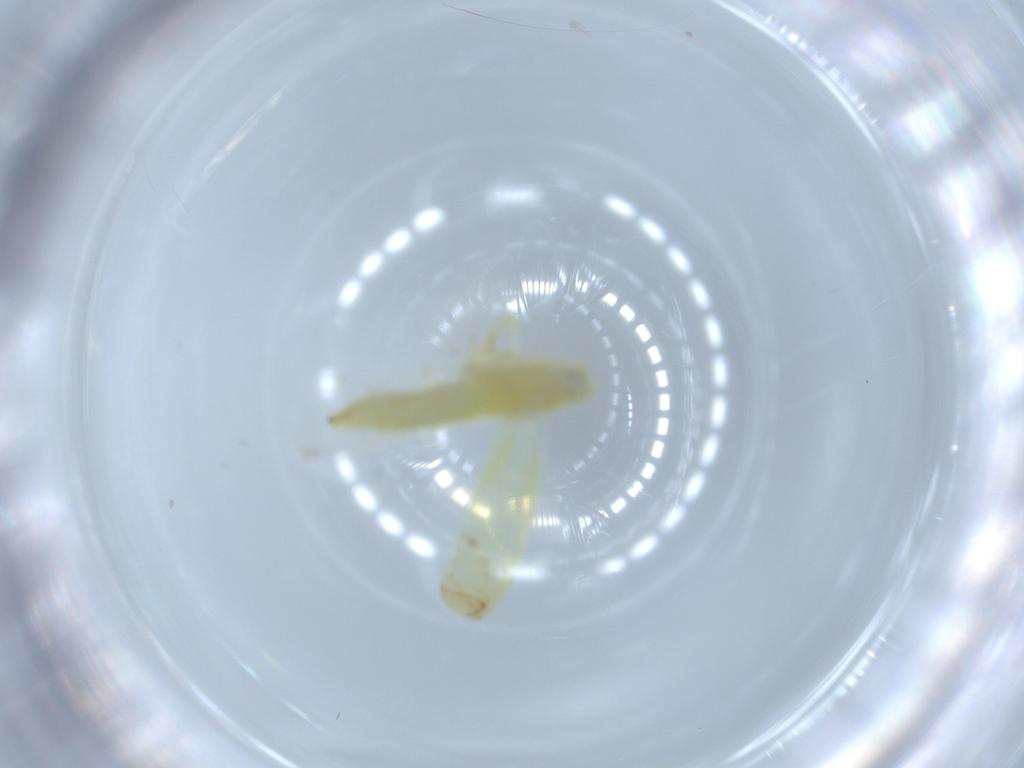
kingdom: Animalia
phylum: Arthropoda
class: Insecta
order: Hemiptera
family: Cicadellidae
